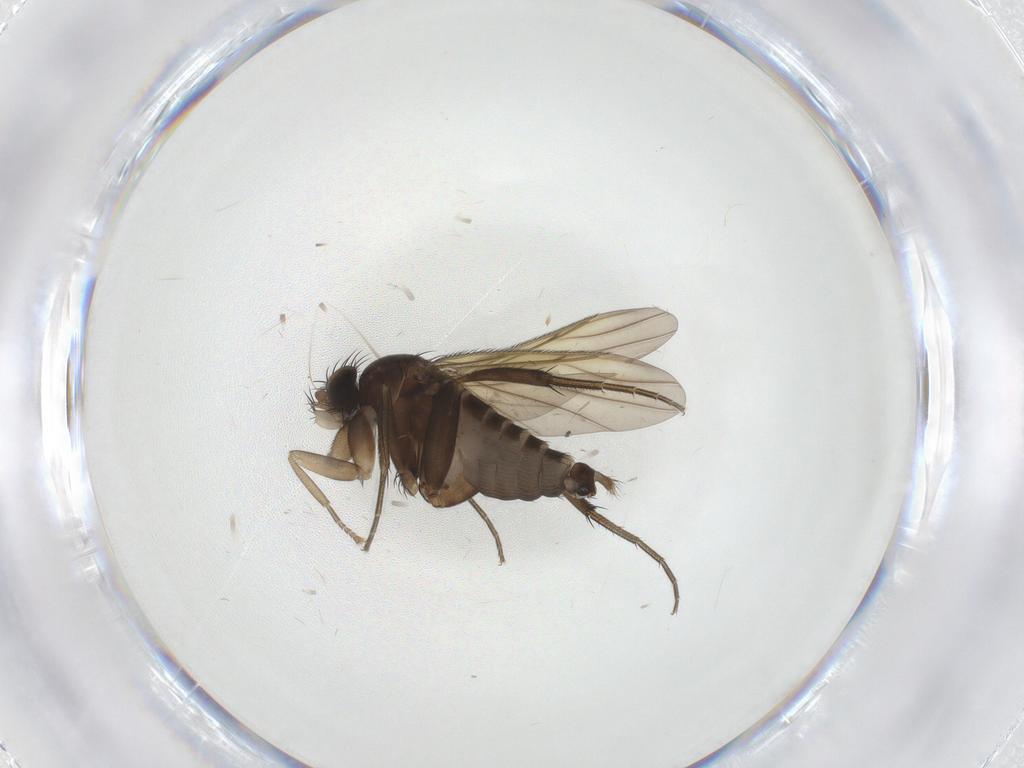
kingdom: Animalia
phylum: Arthropoda
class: Insecta
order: Diptera
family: Phoridae
